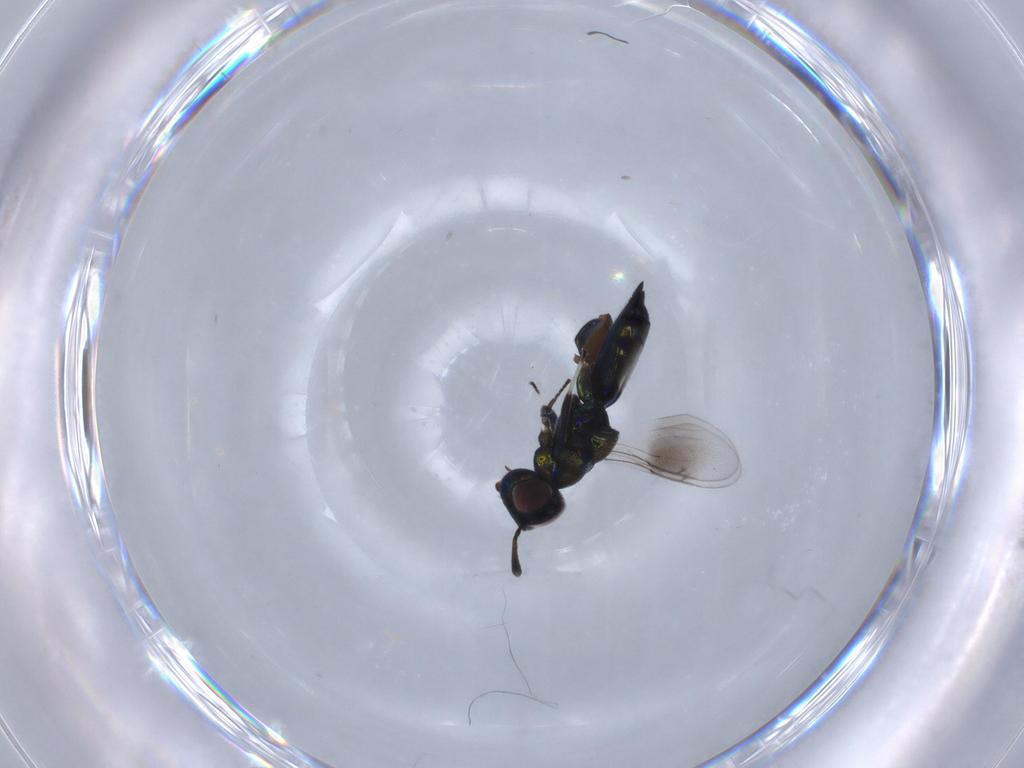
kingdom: Animalia
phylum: Arthropoda
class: Insecta
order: Hymenoptera
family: Pteromalidae
